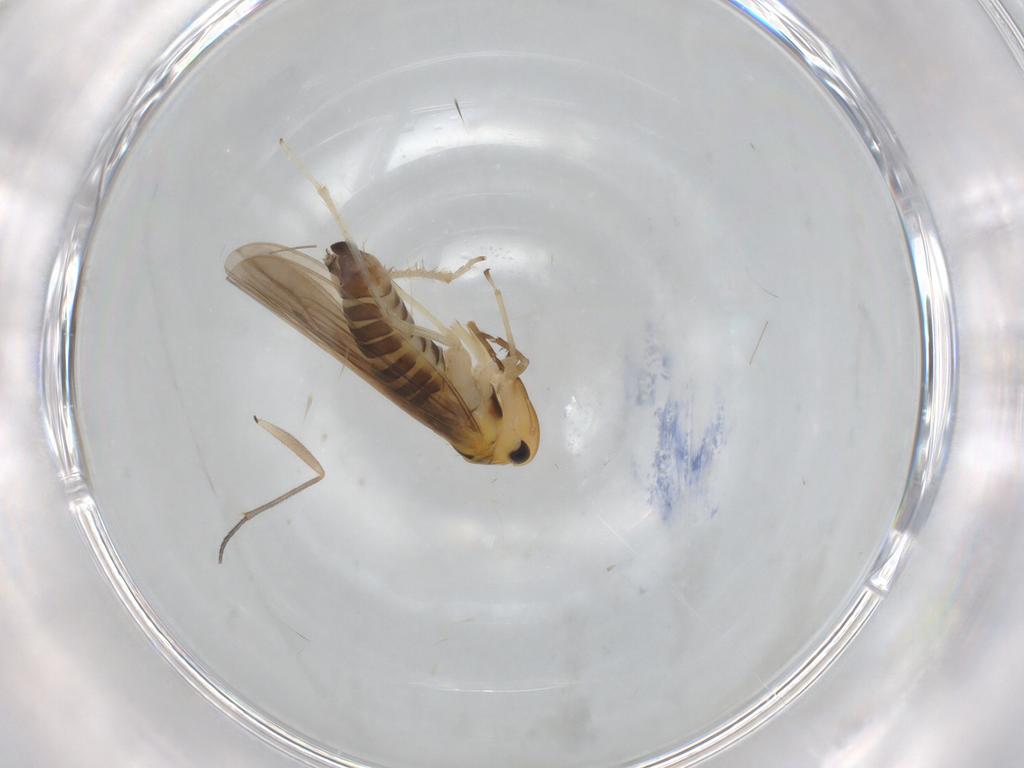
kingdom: Animalia
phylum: Arthropoda
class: Insecta
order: Hemiptera
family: Cicadellidae
